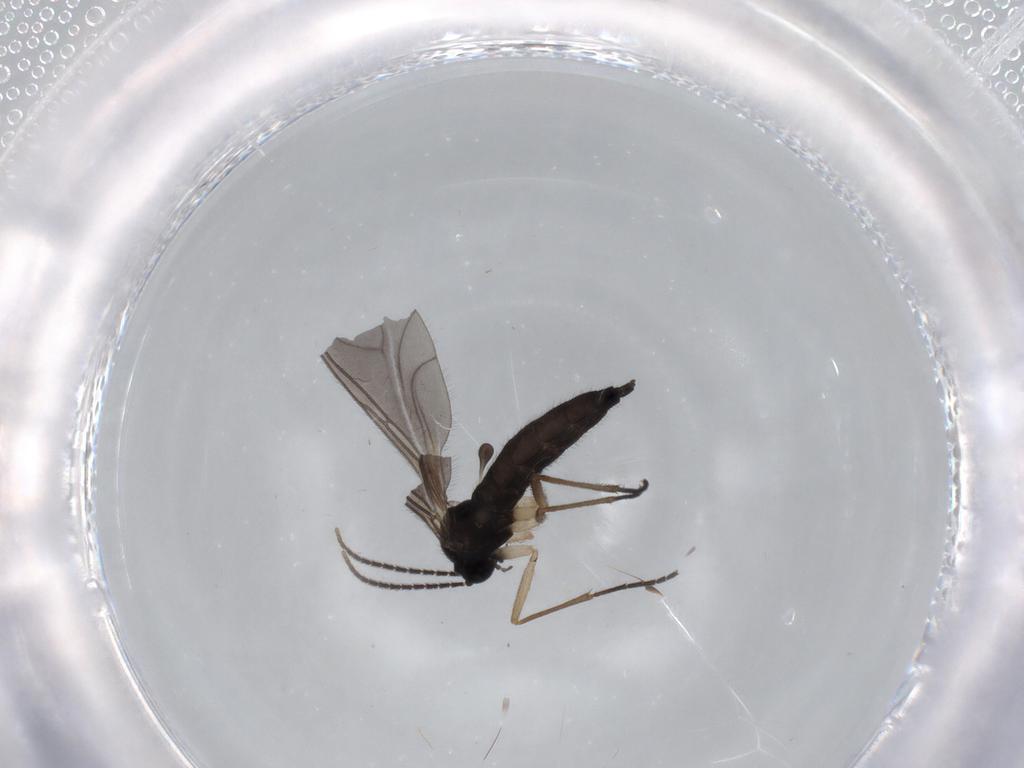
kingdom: Animalia
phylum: Arthropoda
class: Insecta
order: Diptera
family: Sciaridae
